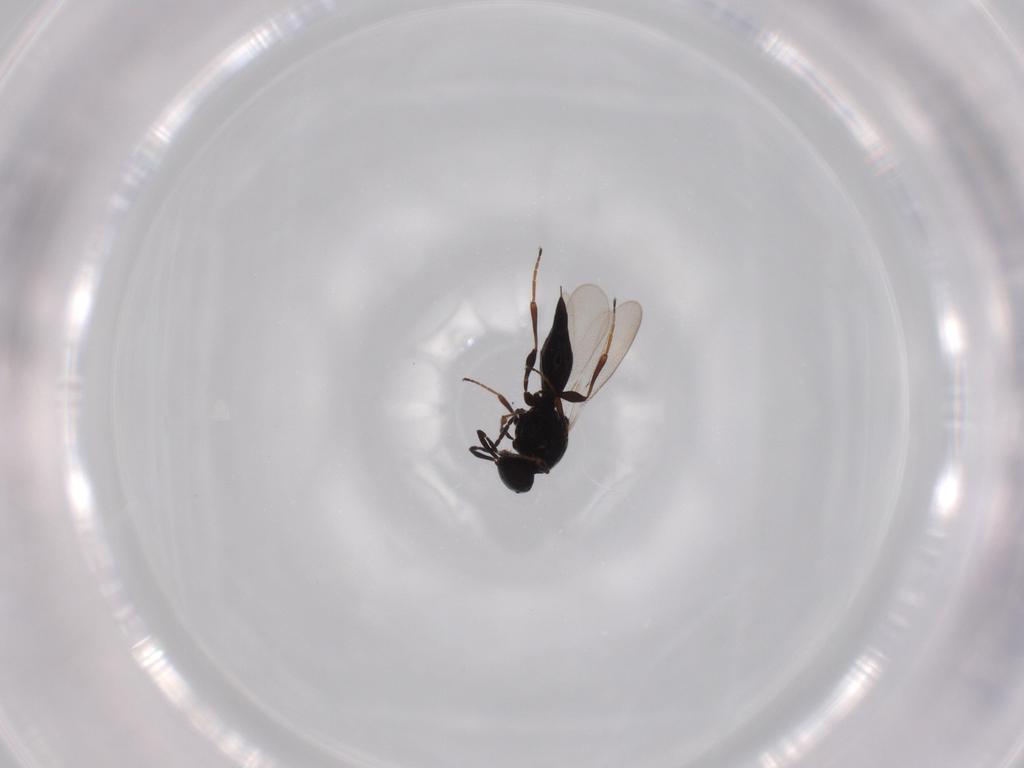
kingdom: Animalia
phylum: Arthropoda
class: Insecta
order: Hymenoptera
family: Platygastridae
